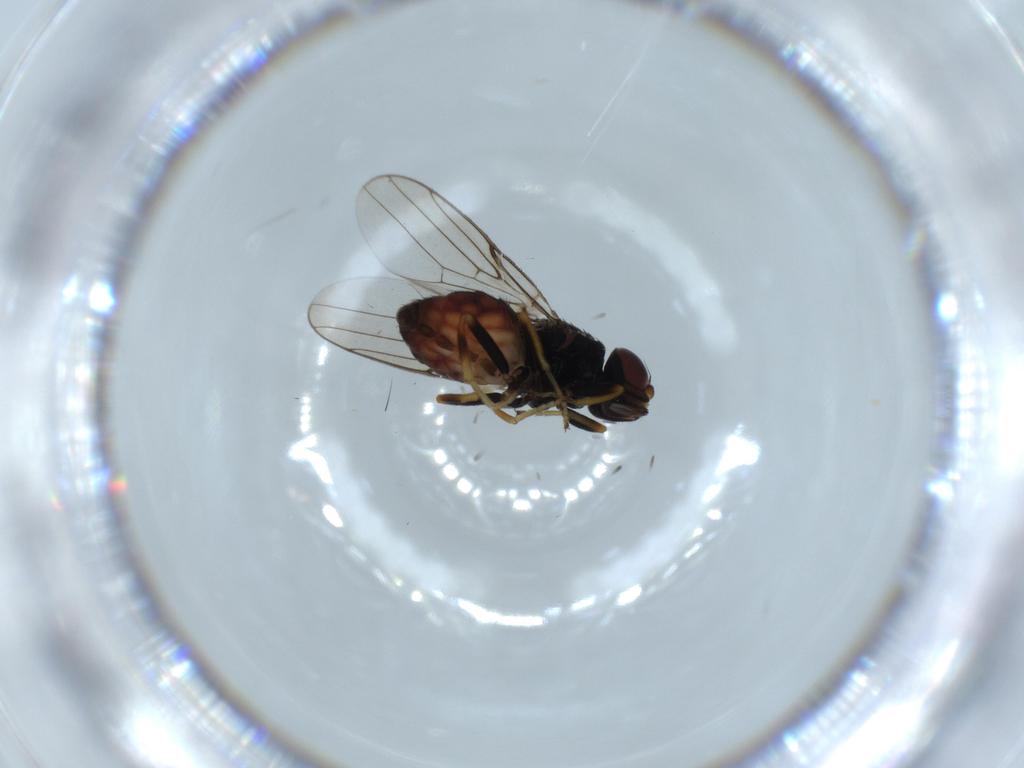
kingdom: Animalia
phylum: Arthropoda
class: Insecta
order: Diptera
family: Chloropidae
